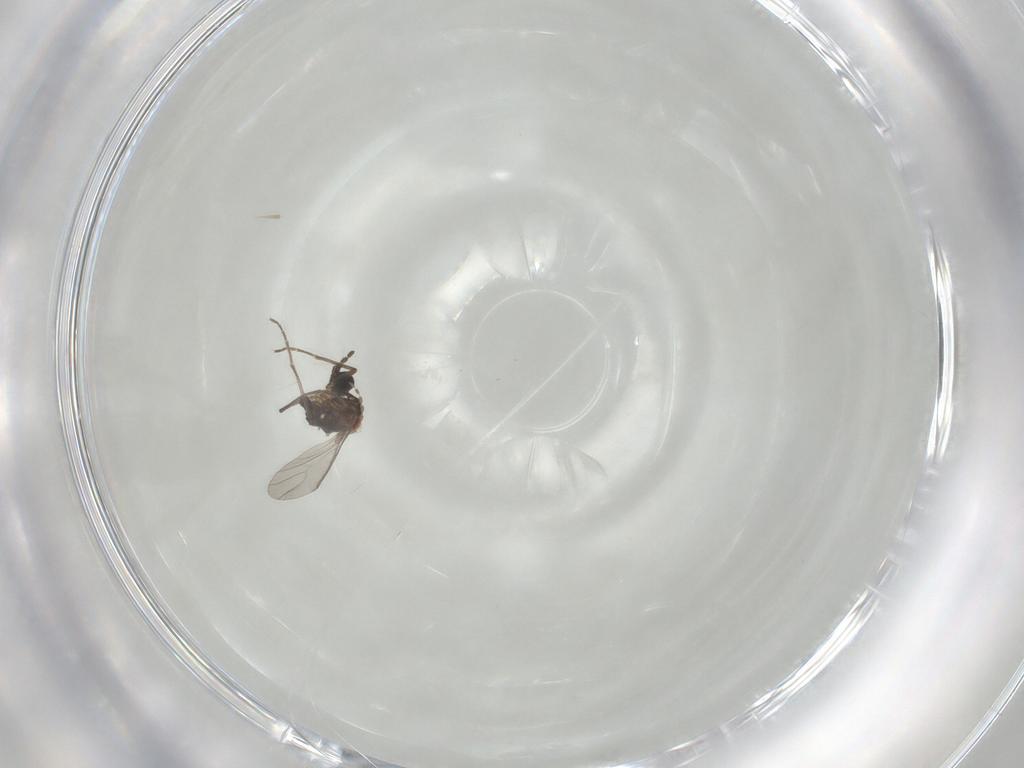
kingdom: Animalia
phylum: Arthropoda
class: Insecta
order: Diptera
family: Sciaridae
